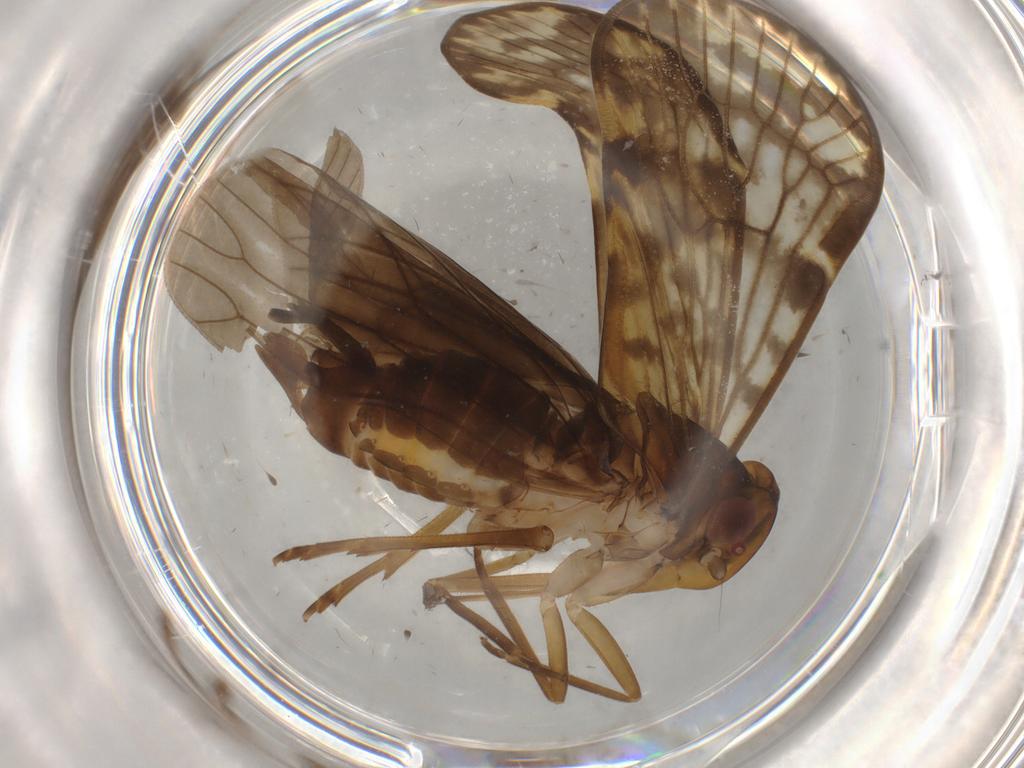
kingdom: Animalia
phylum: Arthropoda
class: Insecta
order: Hemiptera
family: Cicadellidae
